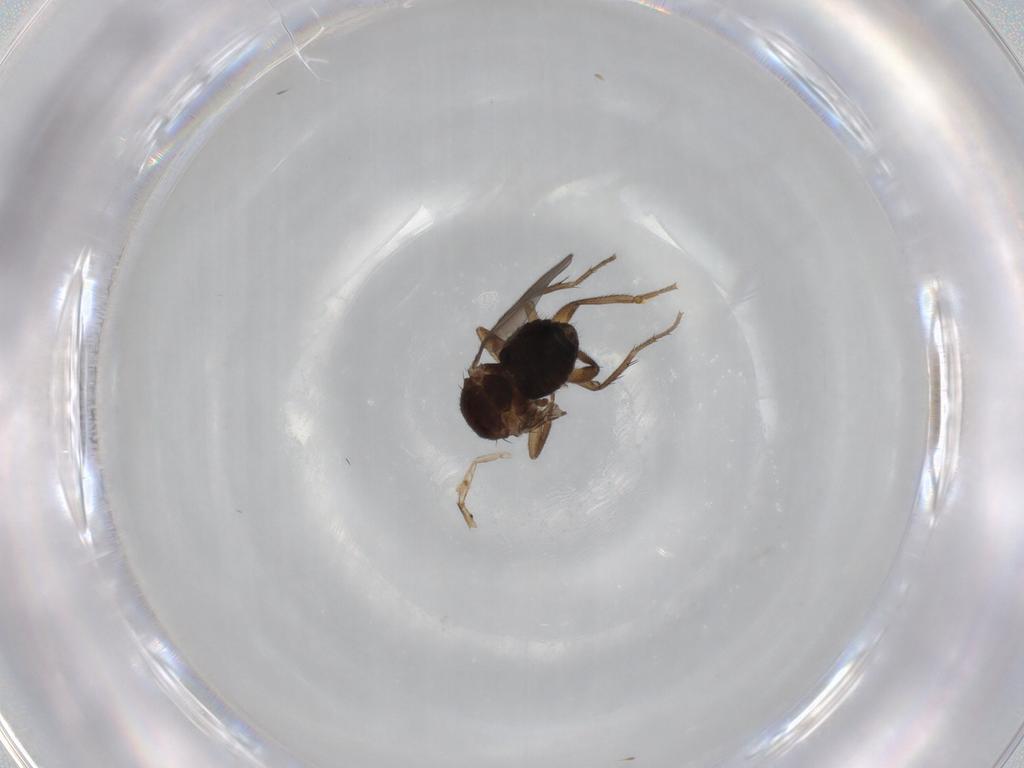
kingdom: Animalia
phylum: Arthropoda
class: Insecta
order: Diptera
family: Sphaeroceridae
